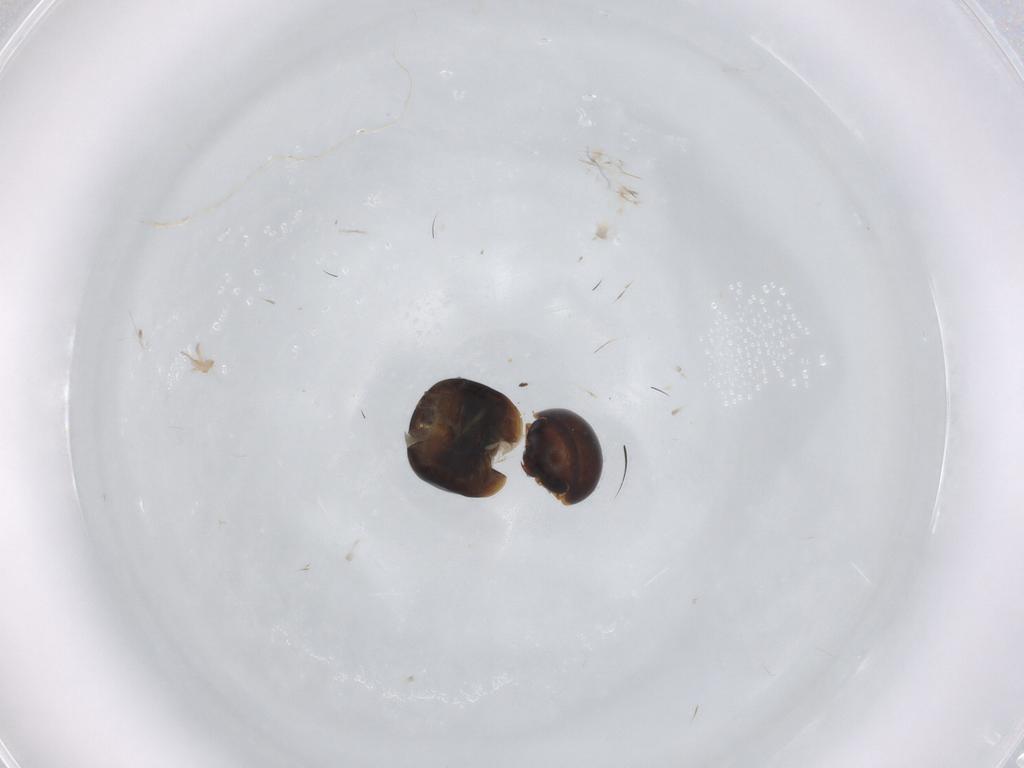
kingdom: Animalia
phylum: Arthropoda
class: Insecta
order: Coleoptera
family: Cybocephalidae
